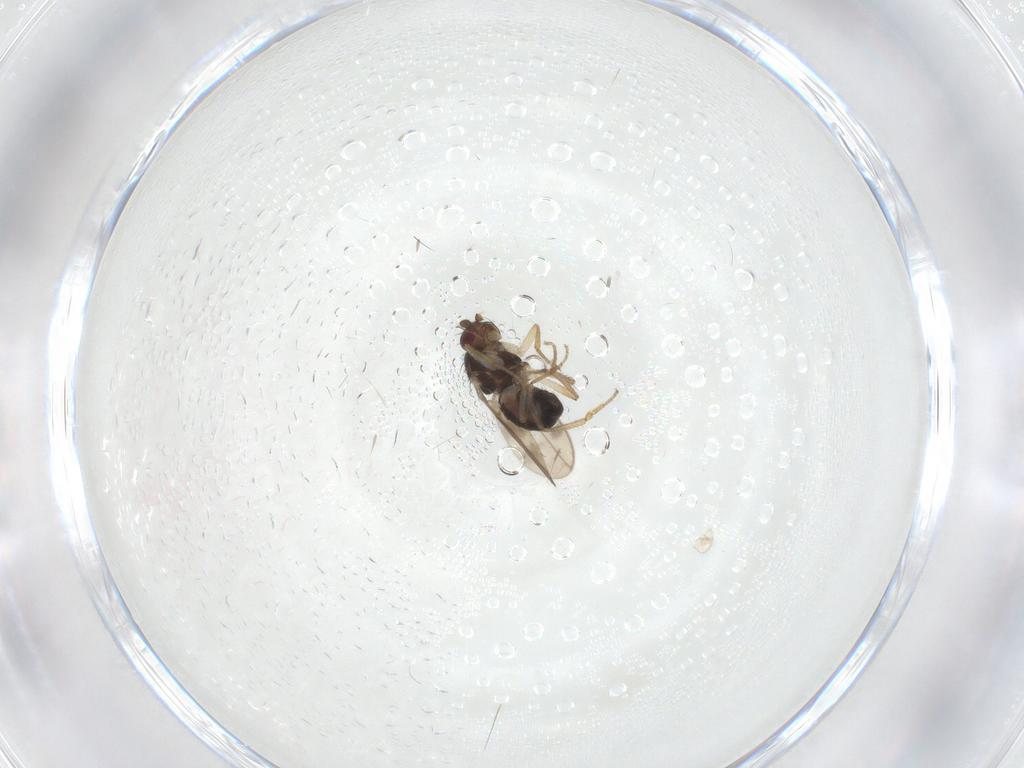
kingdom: Animalia
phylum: Arthropoda
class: Insecta
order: Diptera
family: Sphaeroceridae
